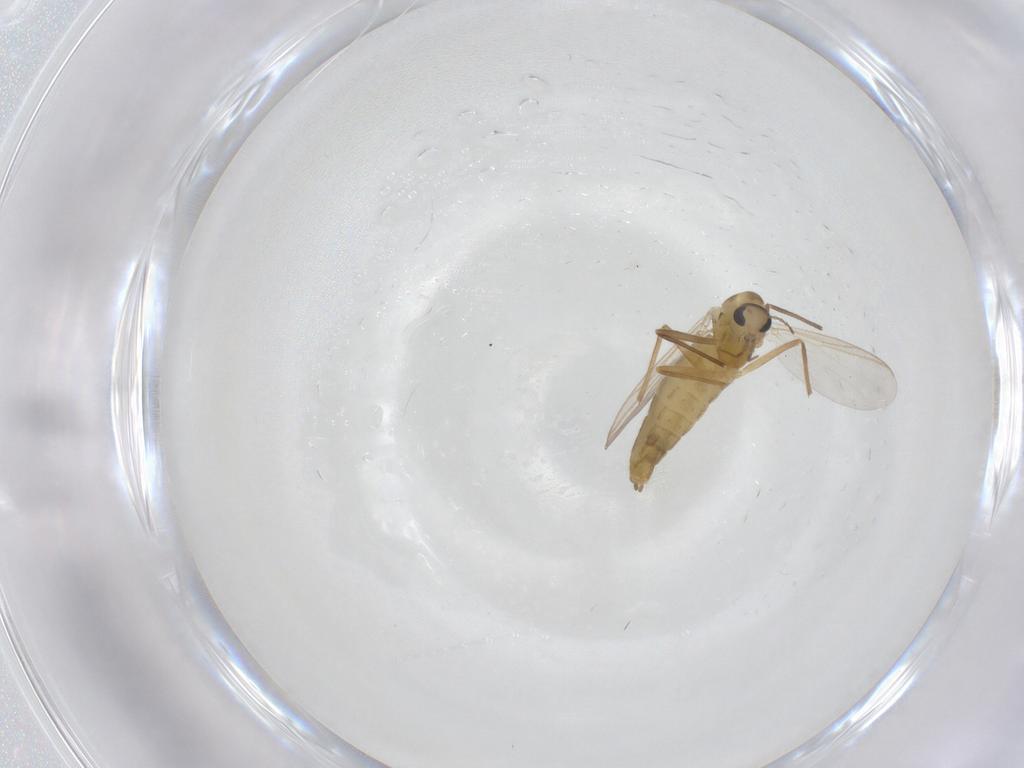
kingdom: Animalia
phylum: Arthropoda
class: Insecta
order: Diptera
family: Chironomidae
